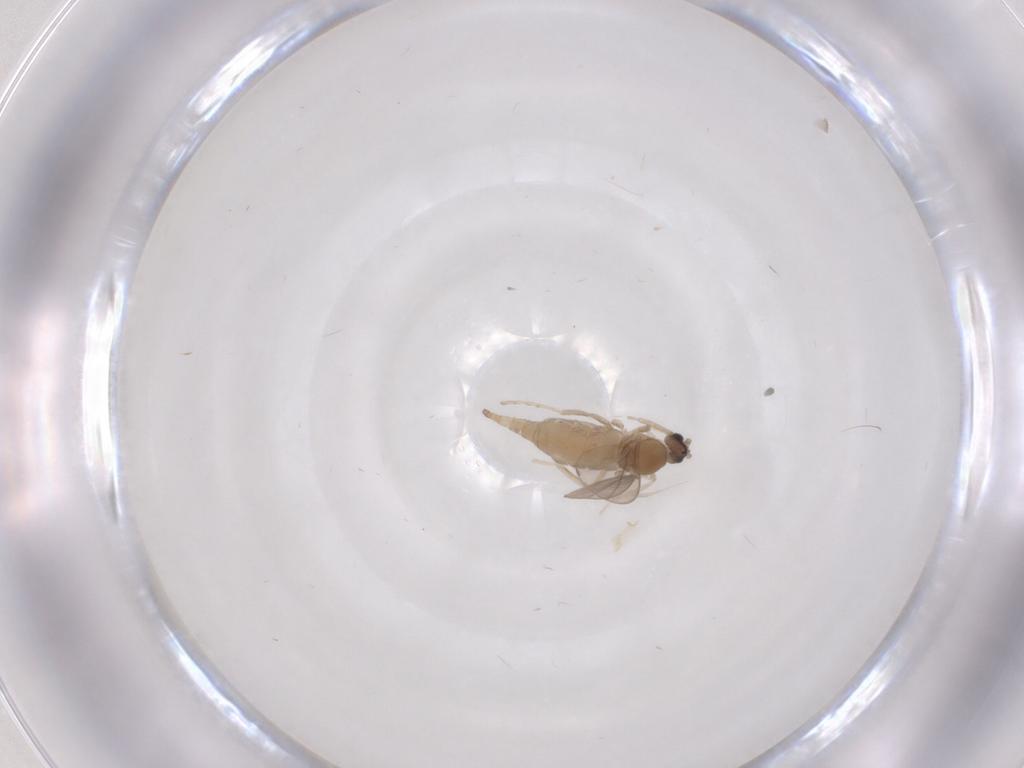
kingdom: Animalia
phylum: Arthropoda
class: Insecta
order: Diptera
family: Cecidomyiidae
